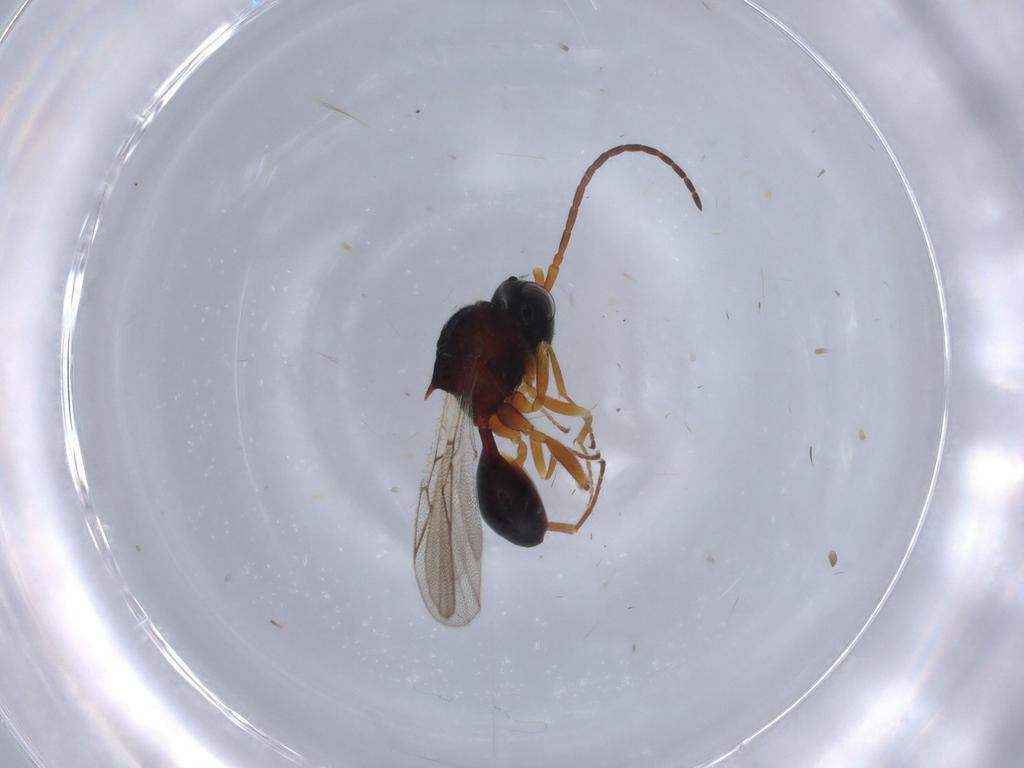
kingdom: Animalia
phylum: Arthropoda
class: Insecta
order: Hymenoptera
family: Figitidae
